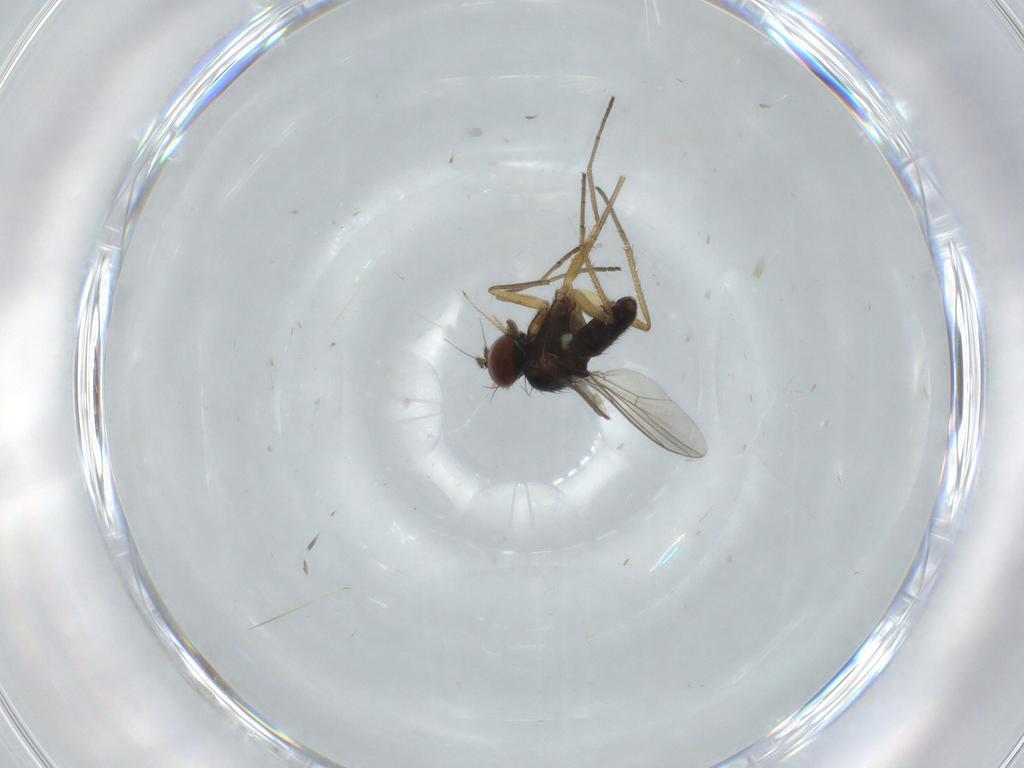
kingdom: Animalia
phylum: Arthropoda
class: Insecta
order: Diptera
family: Dolichopodidae
